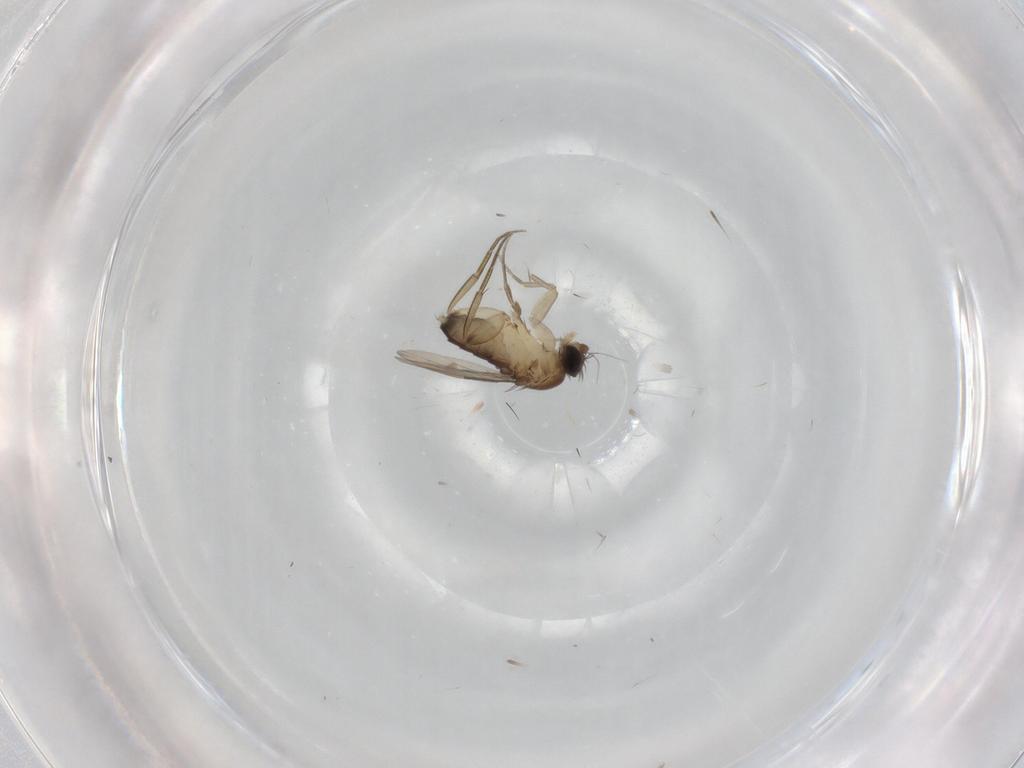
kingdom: Animalia
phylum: Arthropoda
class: Insecta
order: Diptera
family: Phoridae
